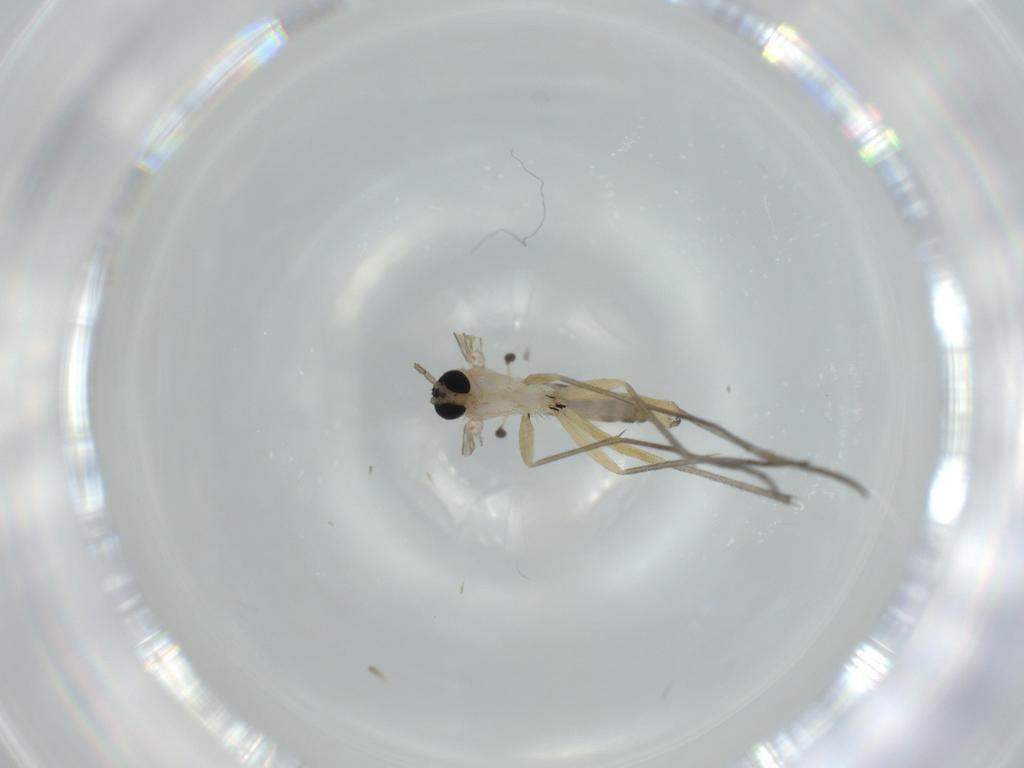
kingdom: Animalia
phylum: Arthropoda
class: Insecta
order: Diptera
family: Sciaridae
